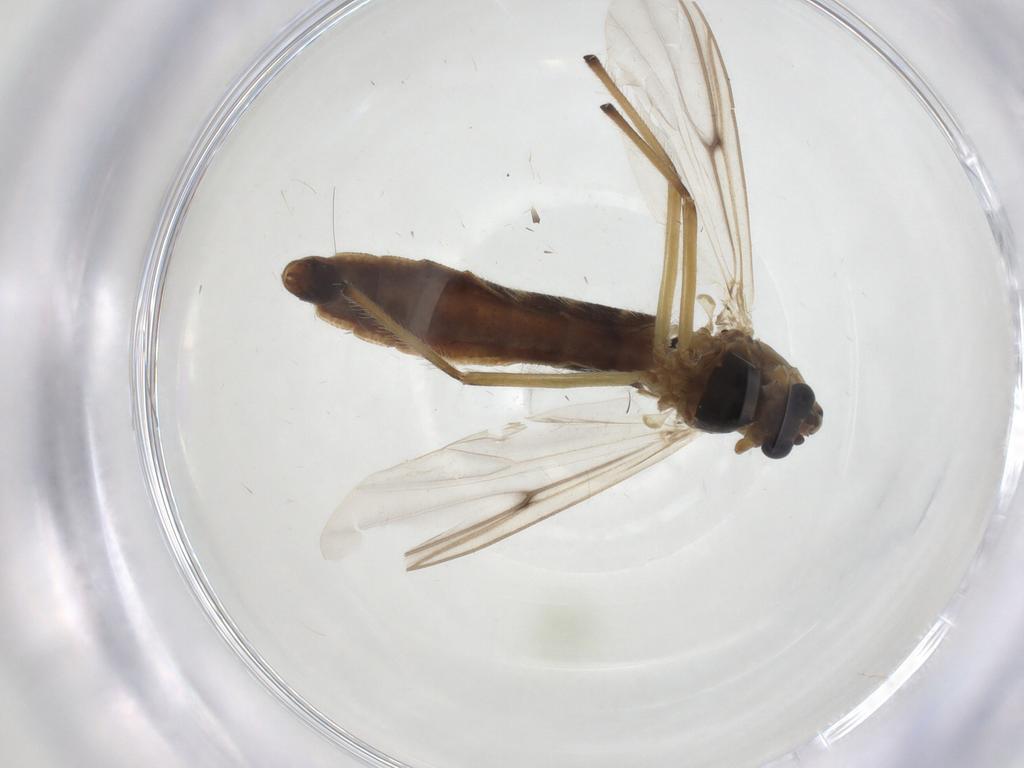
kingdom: Animalia
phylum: Arthropoda
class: Insecta
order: Diptera
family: Chironomidae
